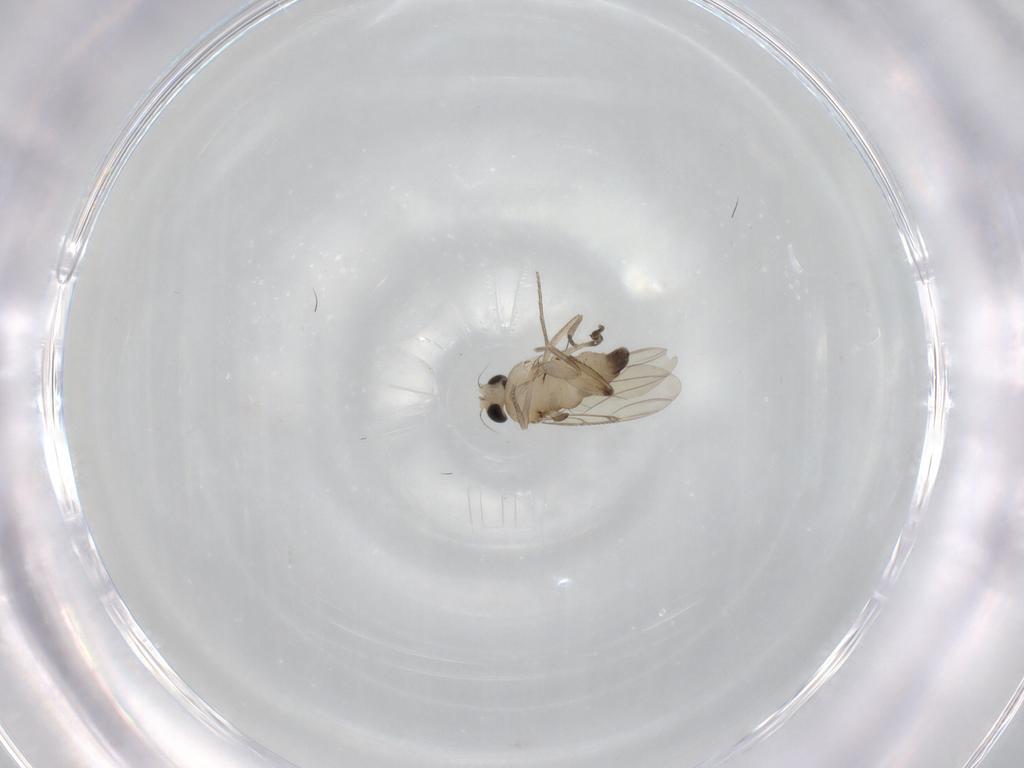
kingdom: Animalia
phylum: Arthropoda
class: Insecta
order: Diptera
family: Phoridae
